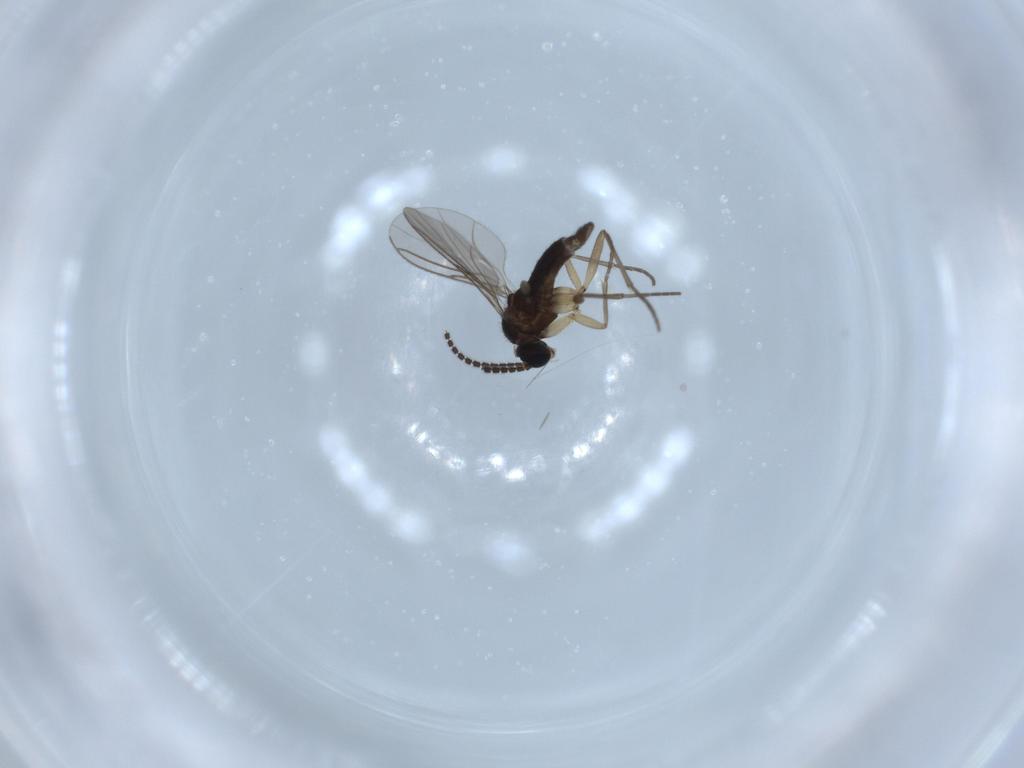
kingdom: Animalia
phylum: Arthropoda
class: Insecta
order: Diptera
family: Sciaridae
